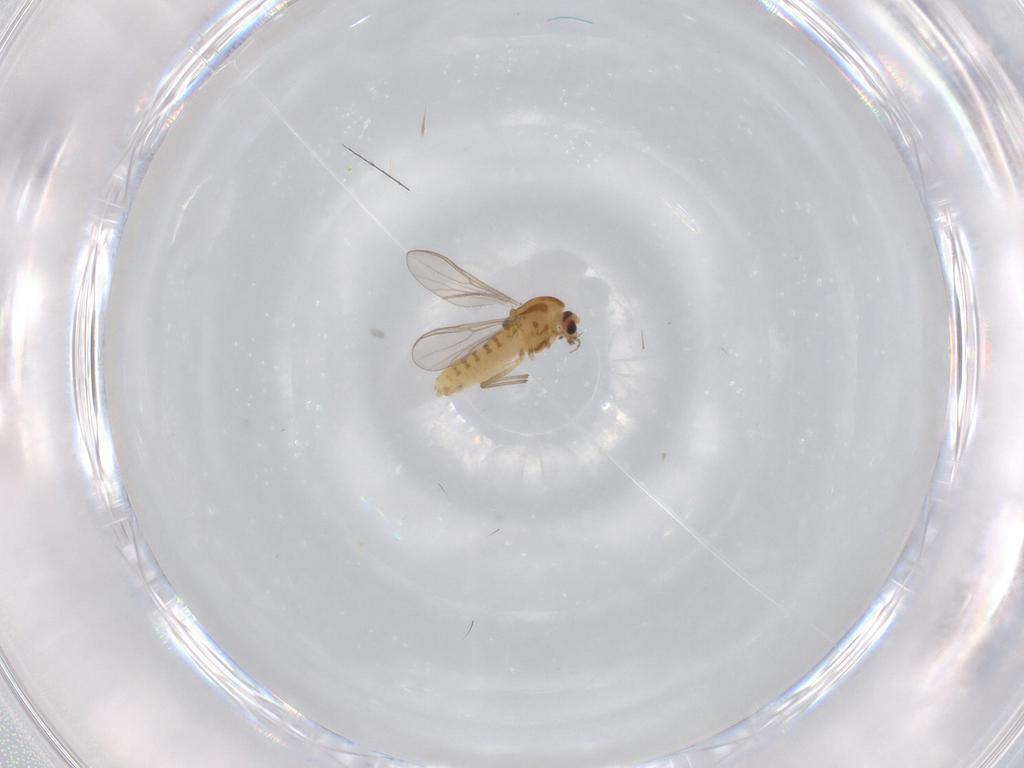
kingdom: Animalia
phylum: Arthropoda
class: Insecta
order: Diptera
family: Chironomidae
